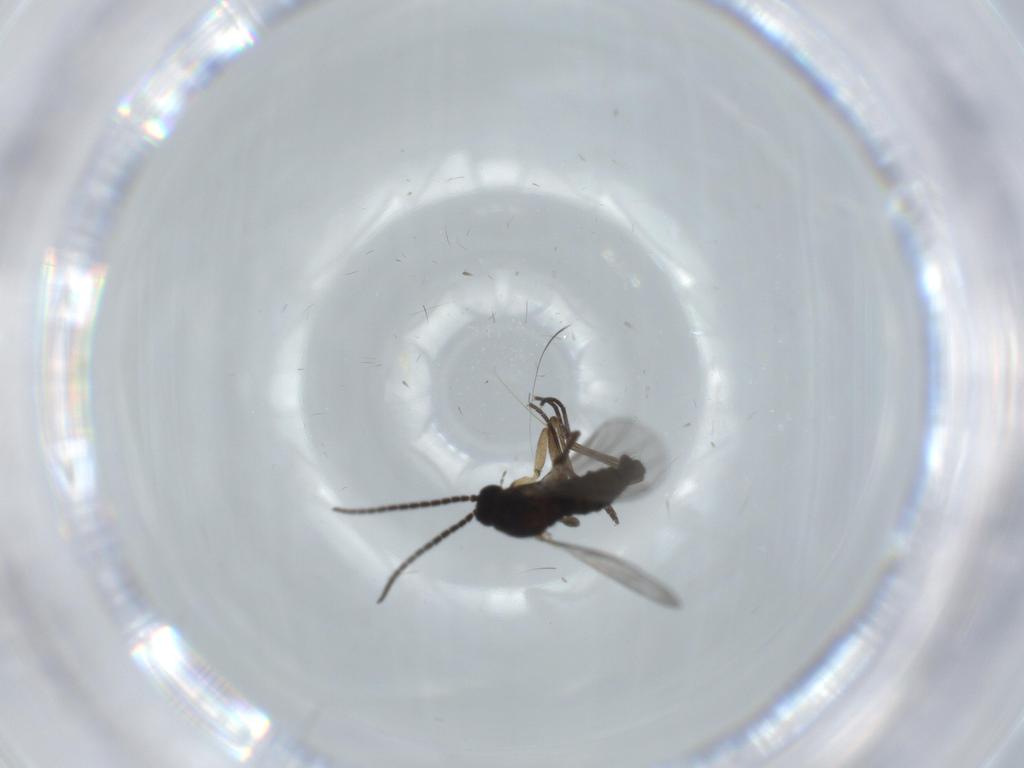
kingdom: Animalia
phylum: Arthropoda
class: Insecta
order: Diptera
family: Sciaridae
